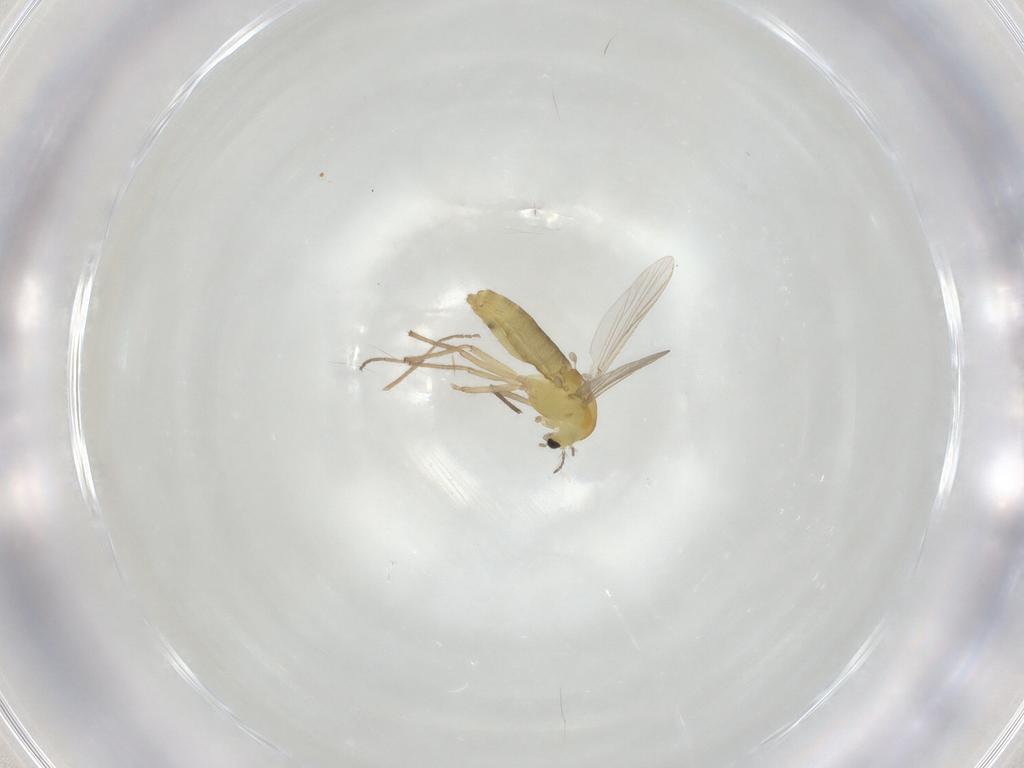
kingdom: Animalia
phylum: Arthropoda
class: Insecta
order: Diptera
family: Chironomidae
